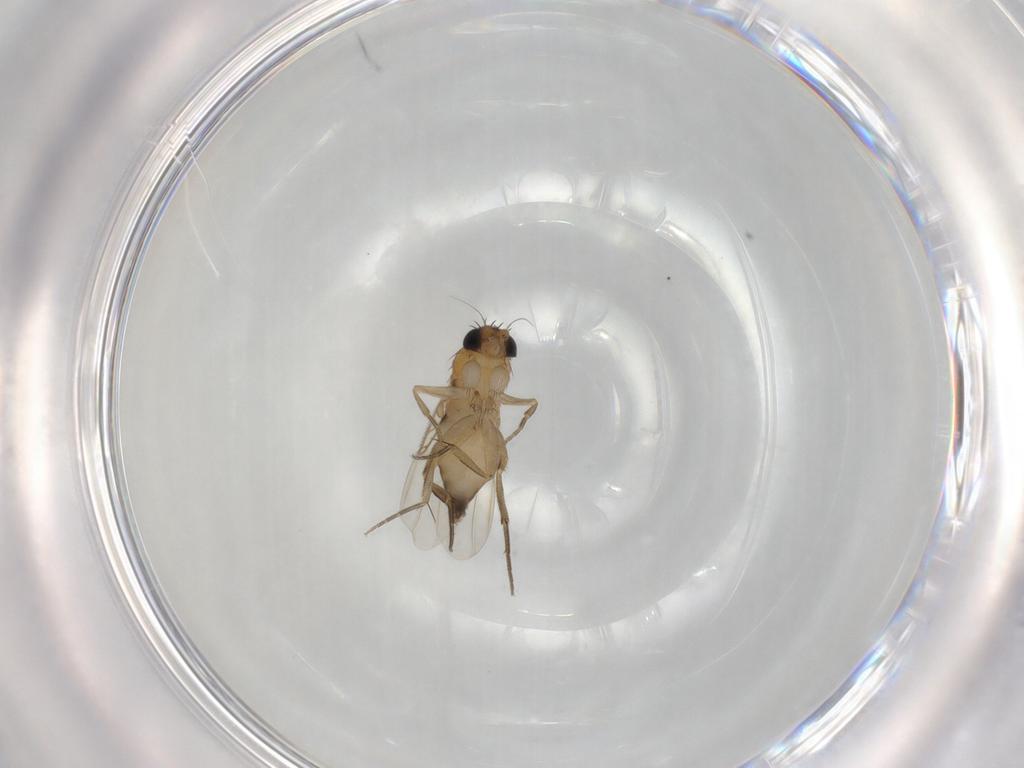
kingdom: Animalia
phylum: Arthropoda
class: Insecta
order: Diptera
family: Phoridae
